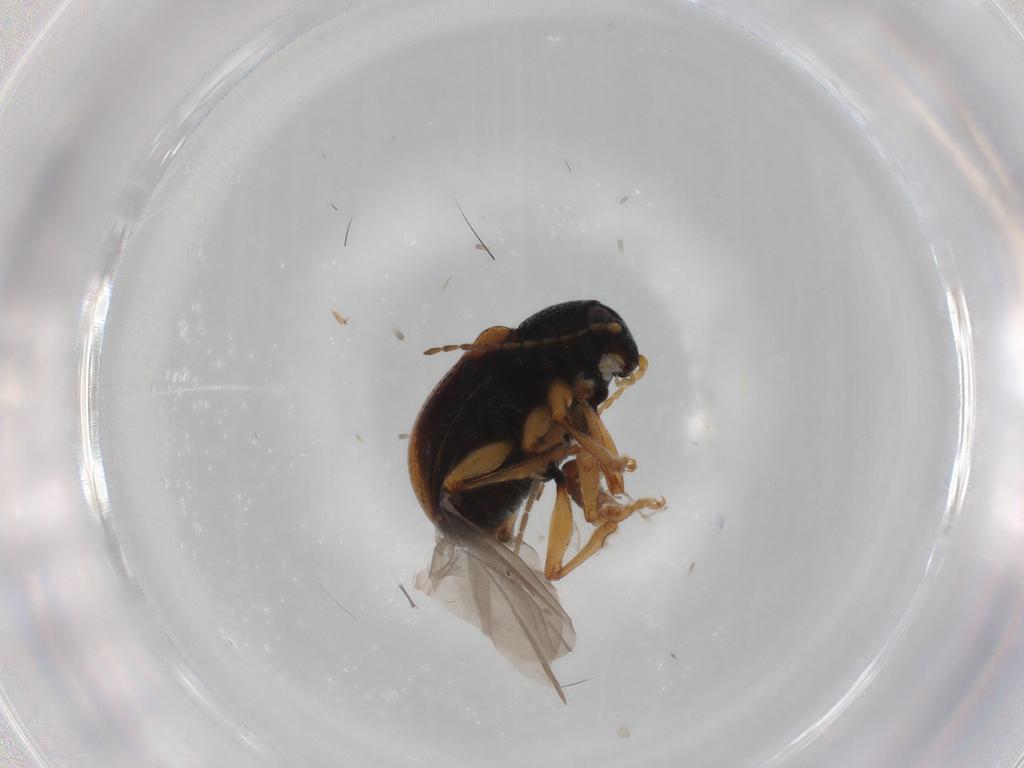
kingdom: Animalia
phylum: Arthropoda
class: Insecta
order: Coleoptera
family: Chrysomelidae
